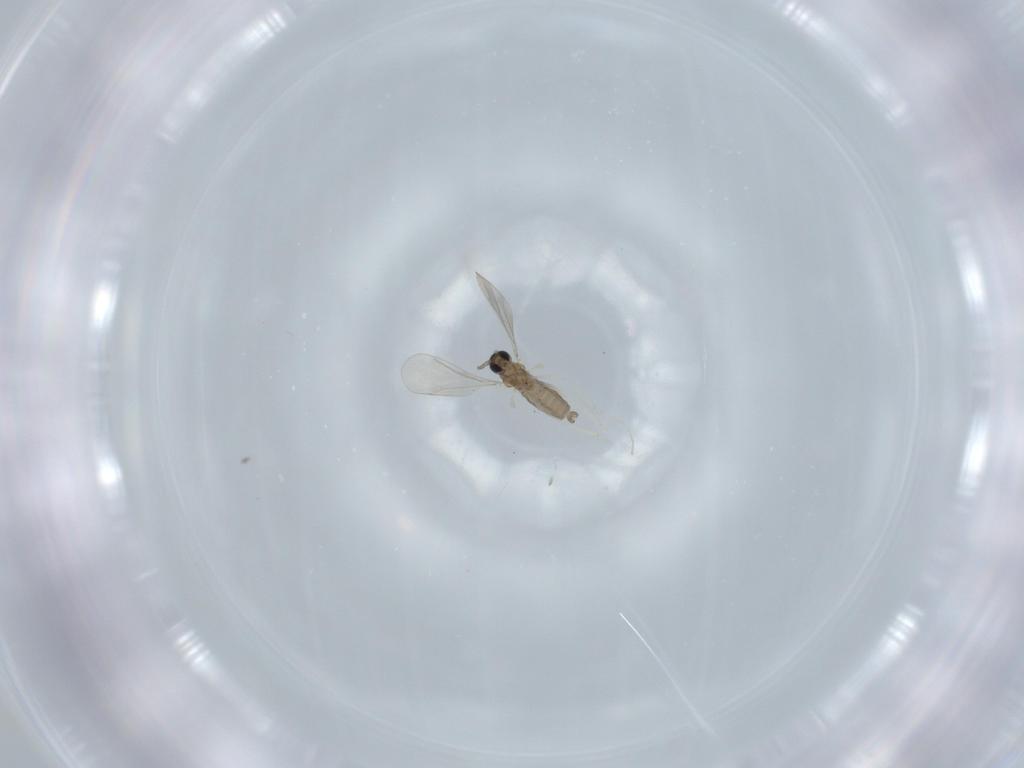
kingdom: Animalia
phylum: Arthropoda
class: Insecta
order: Diptera
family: Cecidomyiidae
